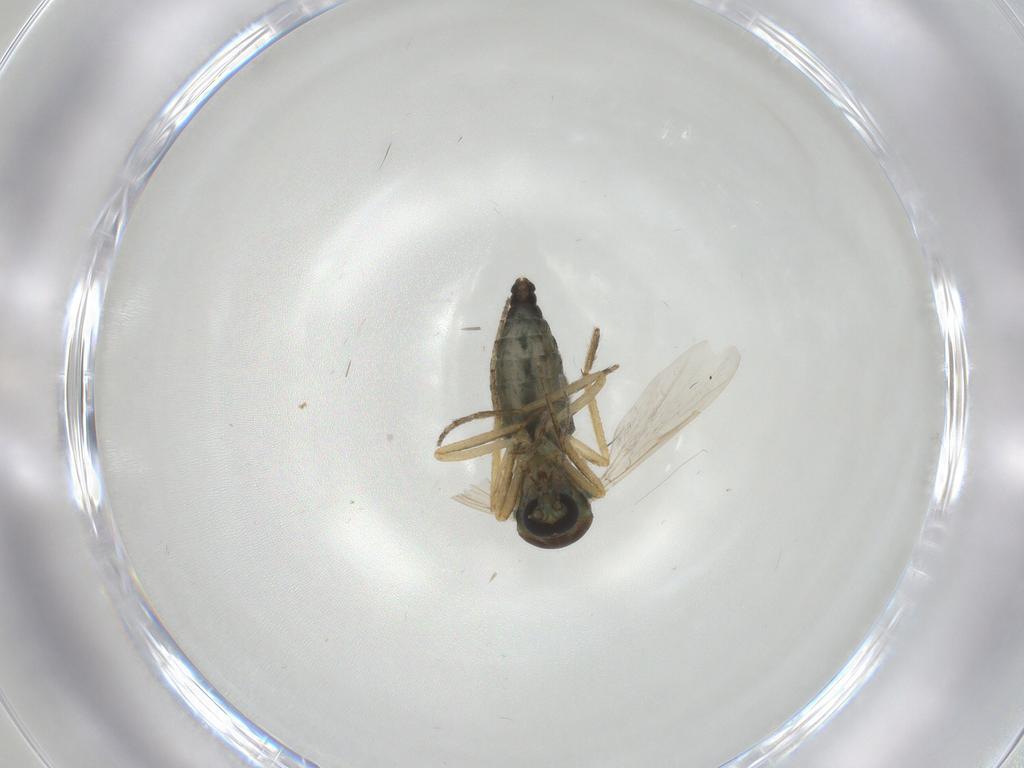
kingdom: Animalia
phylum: Arthropoda
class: Insecta
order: Diptera
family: Ceratopogonidae
